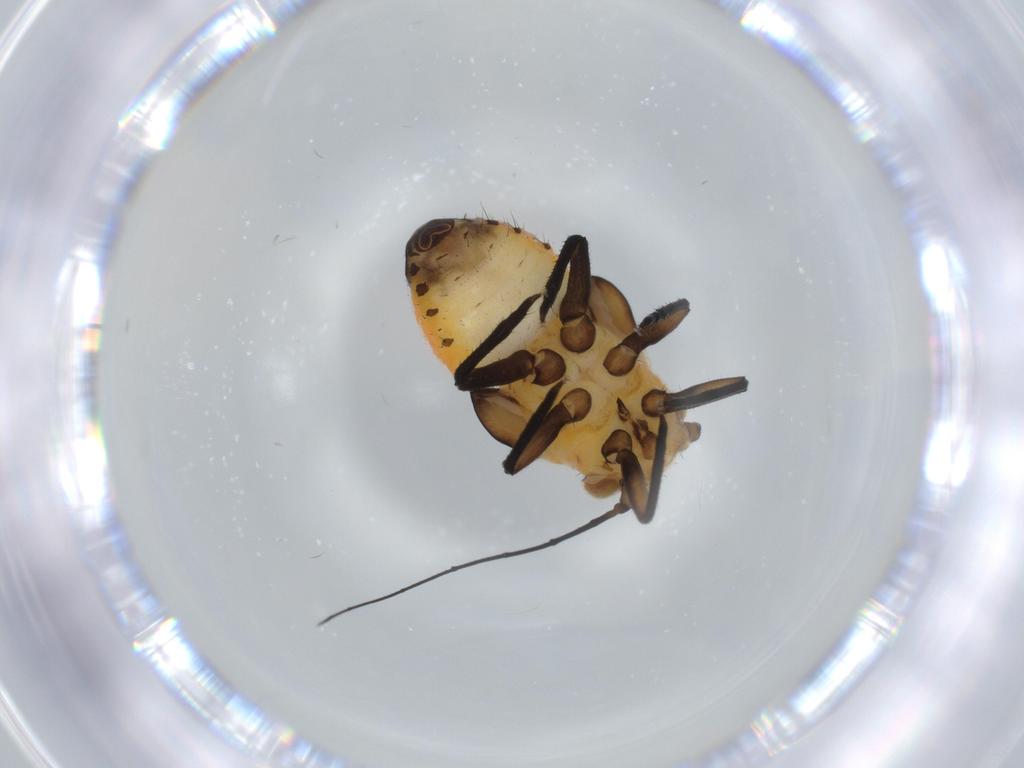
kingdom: Animalia
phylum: Arthropoda
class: Insecta
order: Hemiptera
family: Psyllidae
